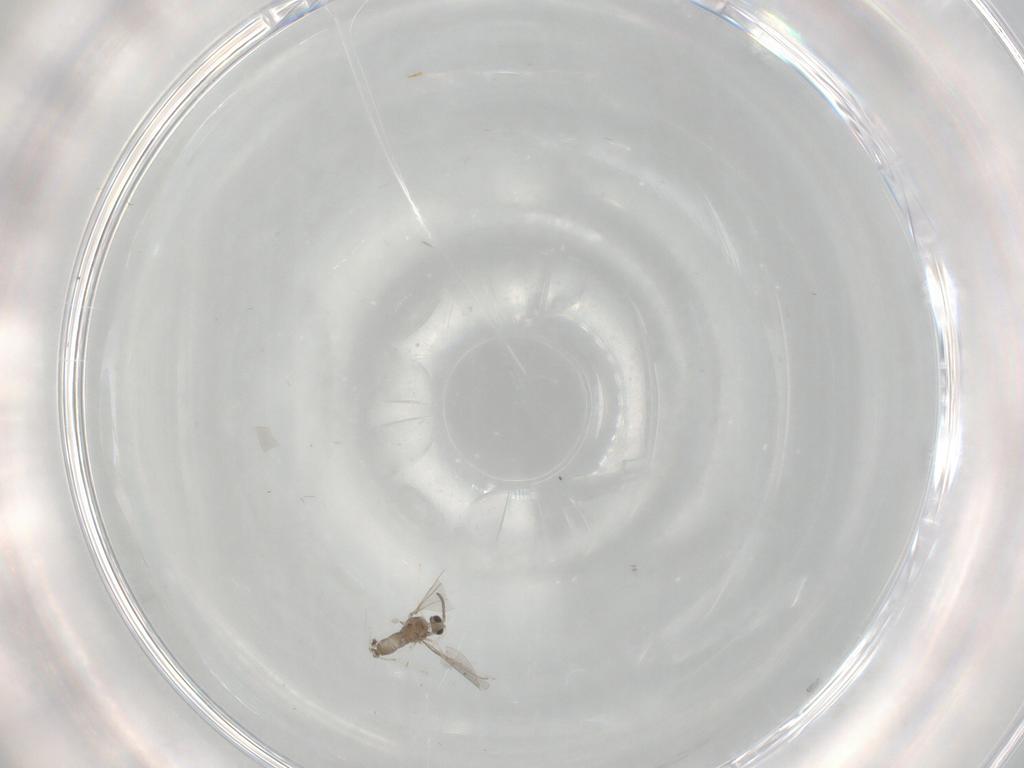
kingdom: Animalia
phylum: Arthropoda
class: Insecta
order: Diptera
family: Cecidomyiidae
